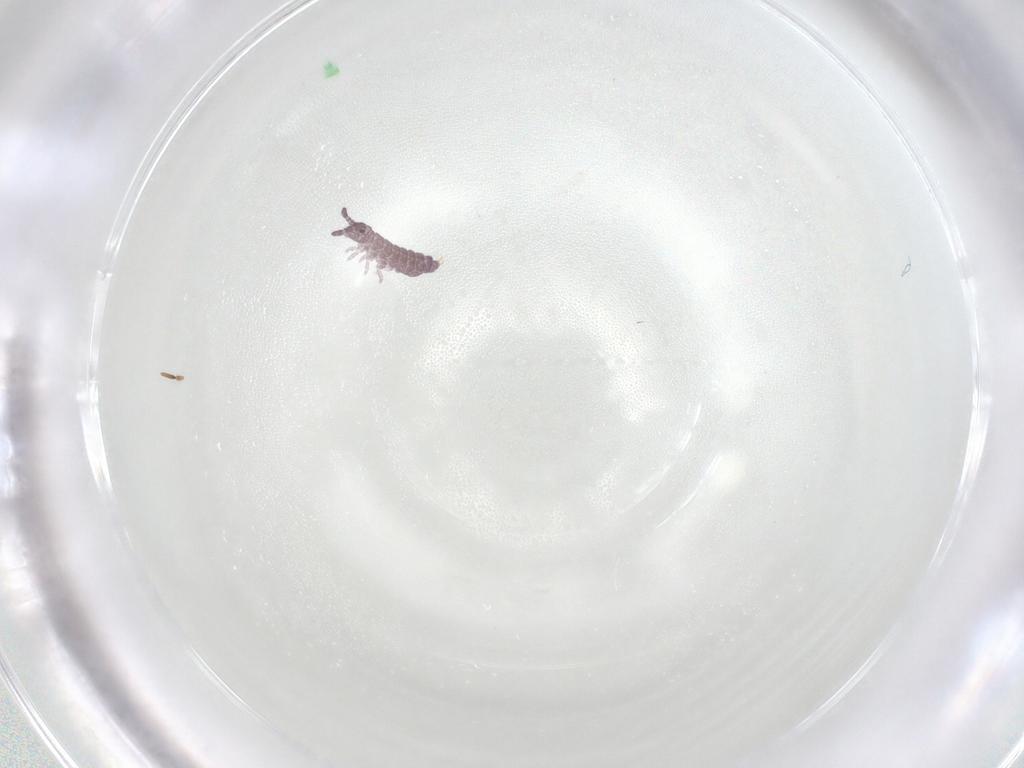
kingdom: Animalia
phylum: Arthropoda
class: Collembola
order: Poduromorpha
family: Hypogastruridae
